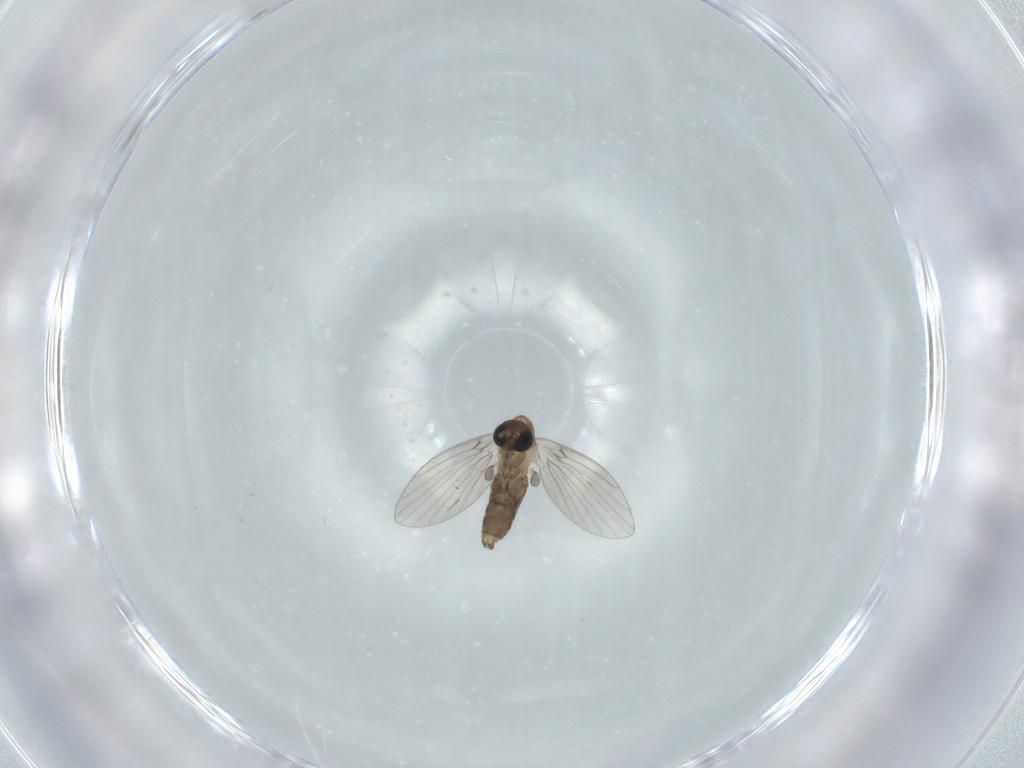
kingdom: Animalia
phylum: Arthropoda
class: Insecta
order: Diptera
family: Psychodidae
